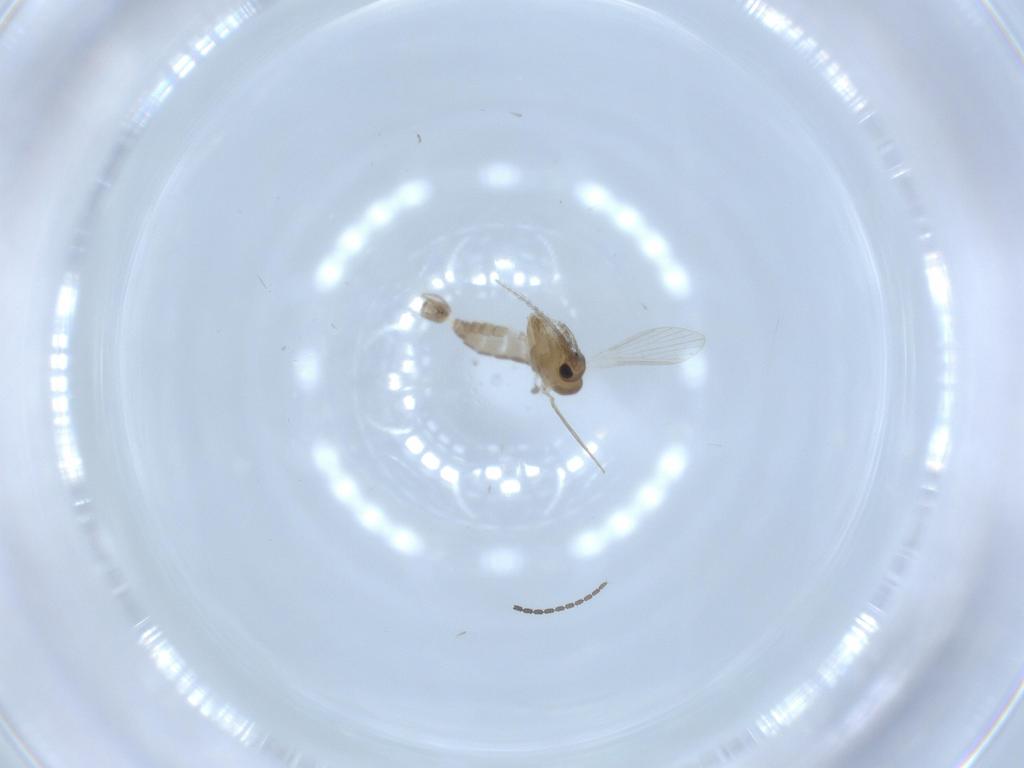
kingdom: Animalia
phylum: Arthropoda
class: Insecta
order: Diptera
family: Psychodidae
